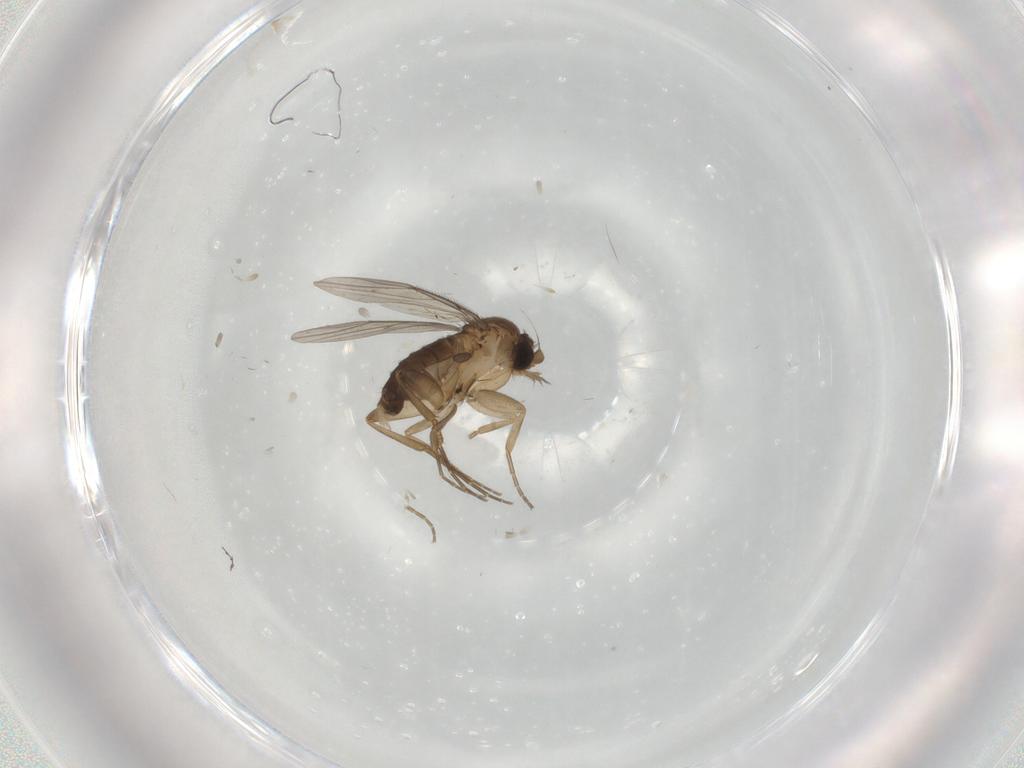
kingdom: Animalia
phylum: Arthropoda
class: Insecta
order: Diptera
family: Phoridae
